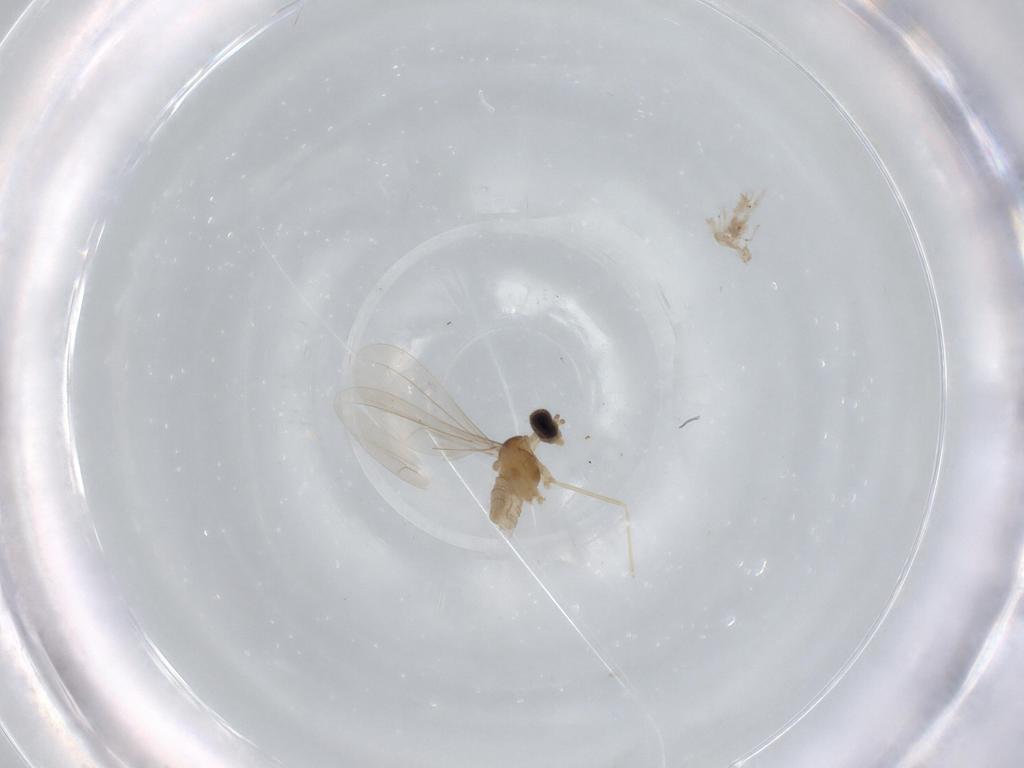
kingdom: Animalia
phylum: Arthropoda
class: Insecta
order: Diptera
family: Cecidomyiidae
